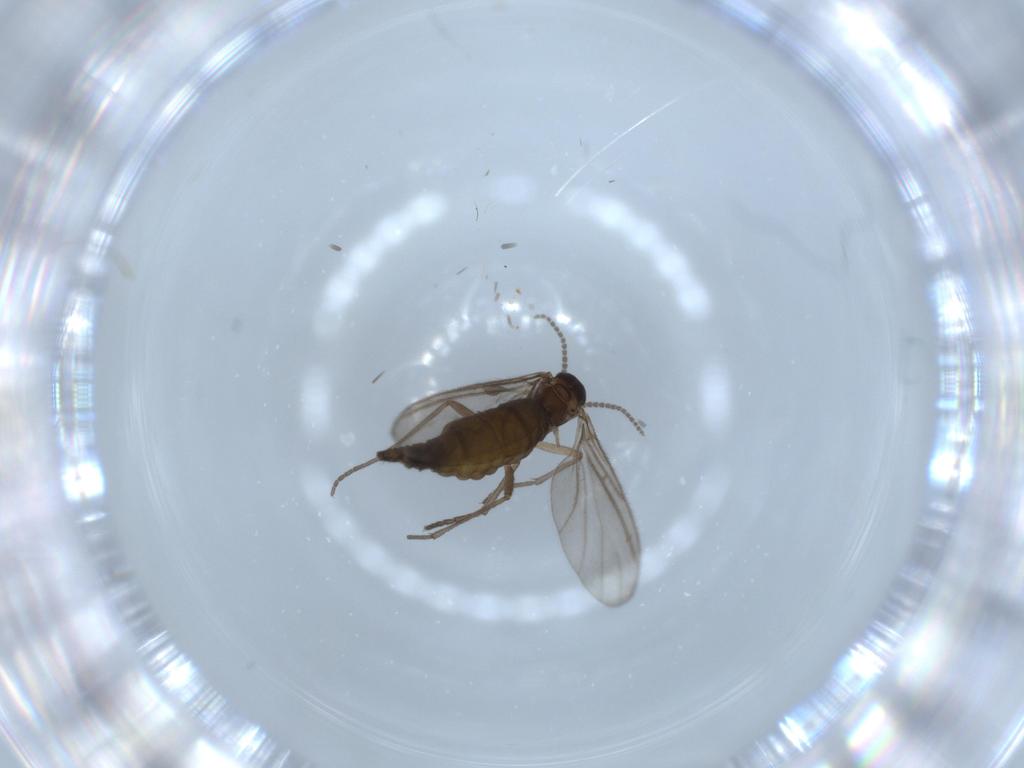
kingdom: Animalia
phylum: Arthropoda
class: Insecta
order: Diptera
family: Sciaridae
